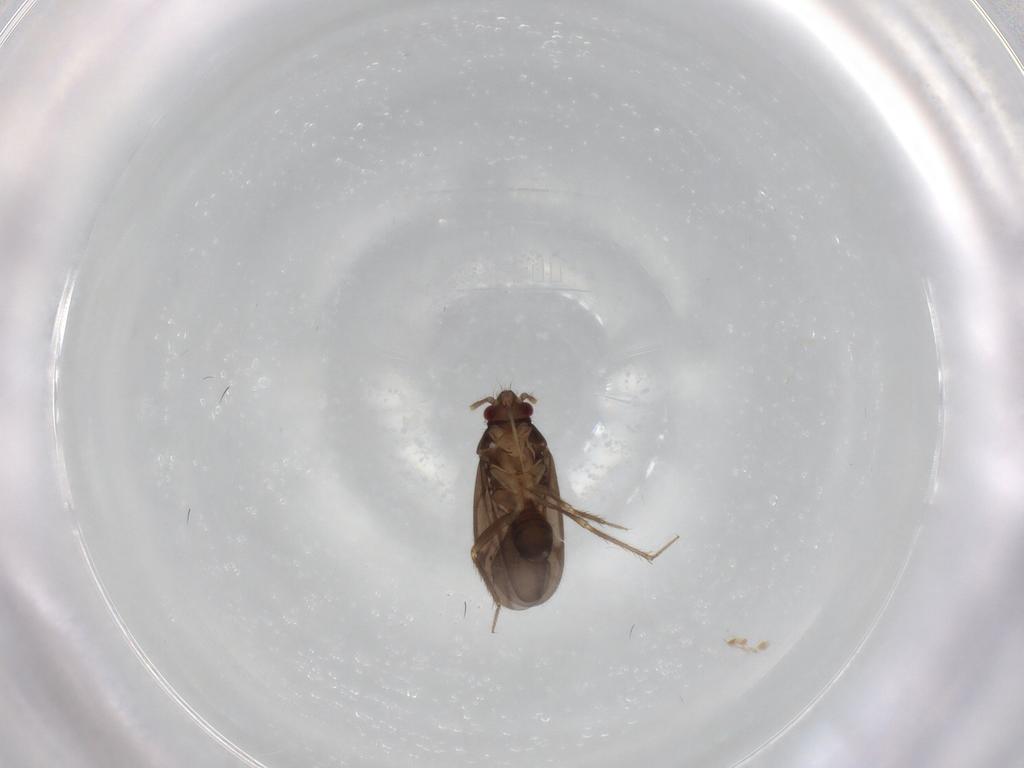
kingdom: Animalia
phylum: Arthropoda
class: Insecta
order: Hemiptera
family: Ceratocombidae
